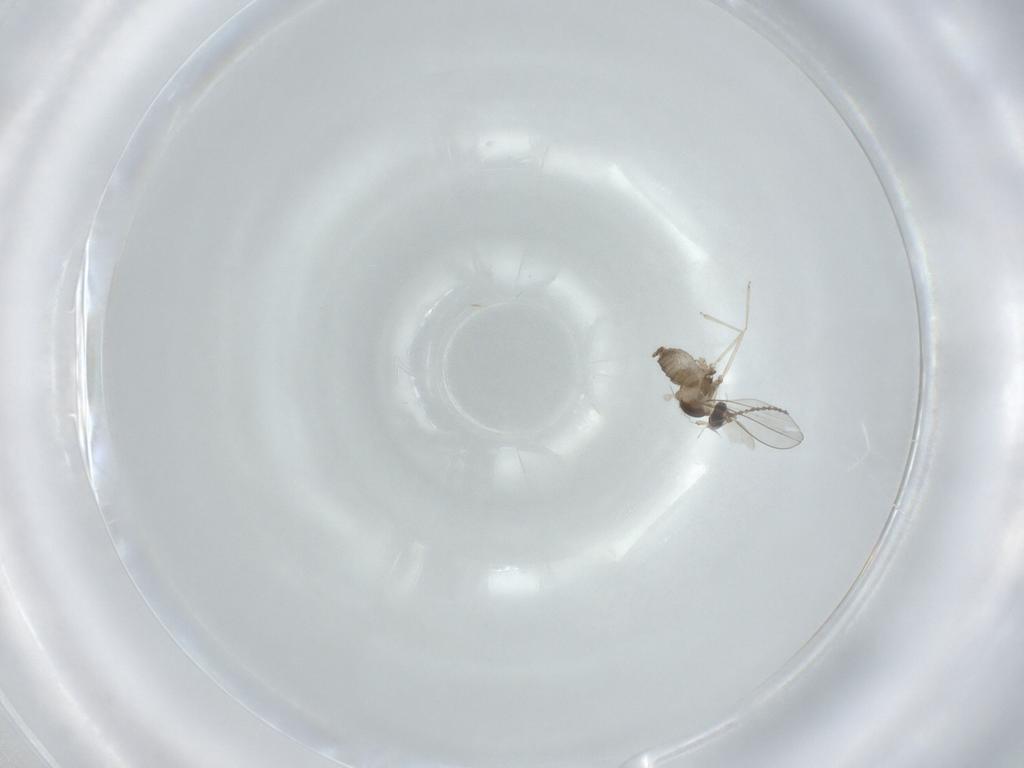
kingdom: Animalia
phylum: Arthropoda
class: Insecta
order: Diptera
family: Cecidomyiidae
